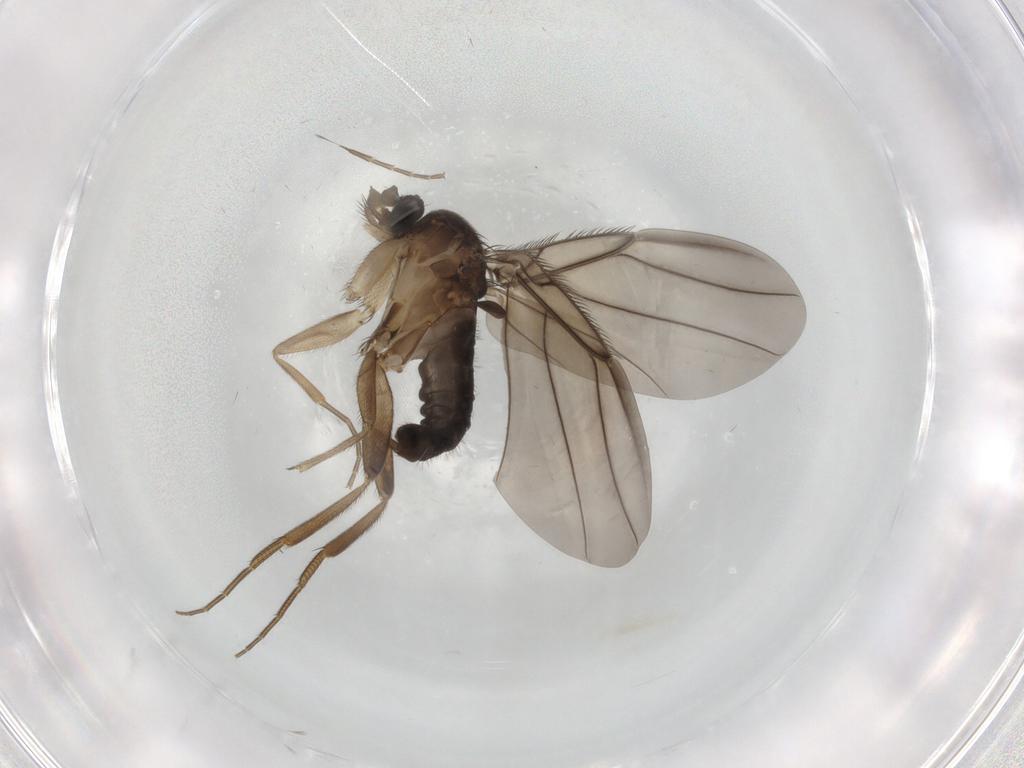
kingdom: Animalia
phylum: Arthropoda
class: Insecta
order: Diptera
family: Phoridae
